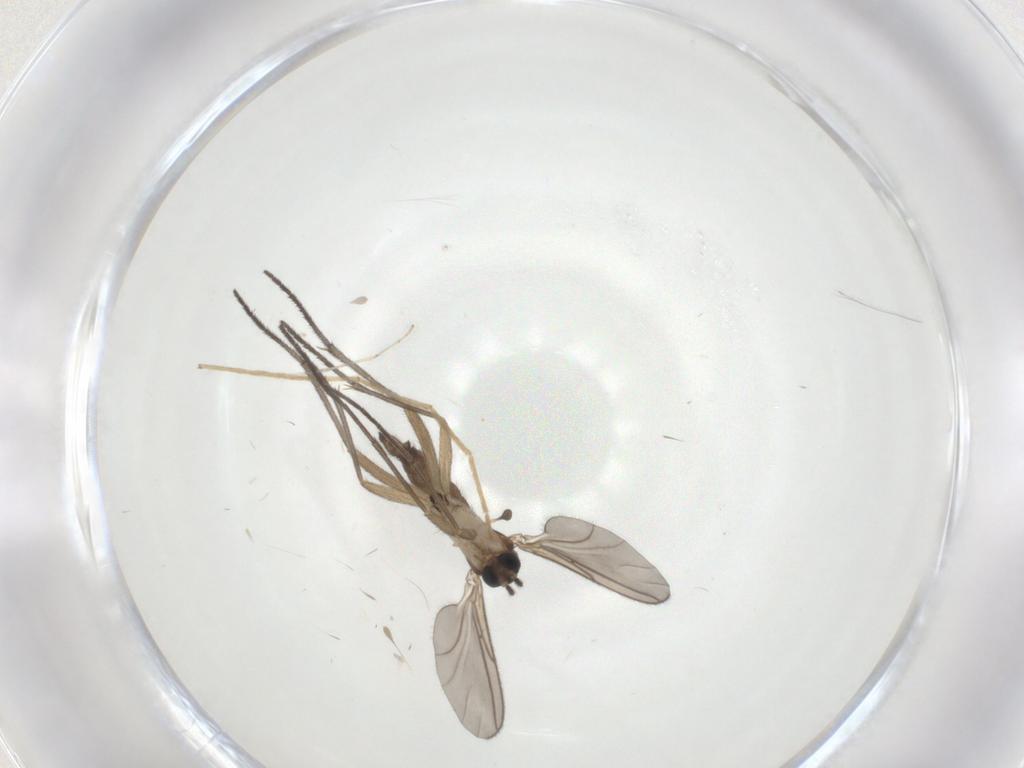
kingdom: Animalia
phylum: Arthropoda
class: Insecta
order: Diptera
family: Sciaridae
